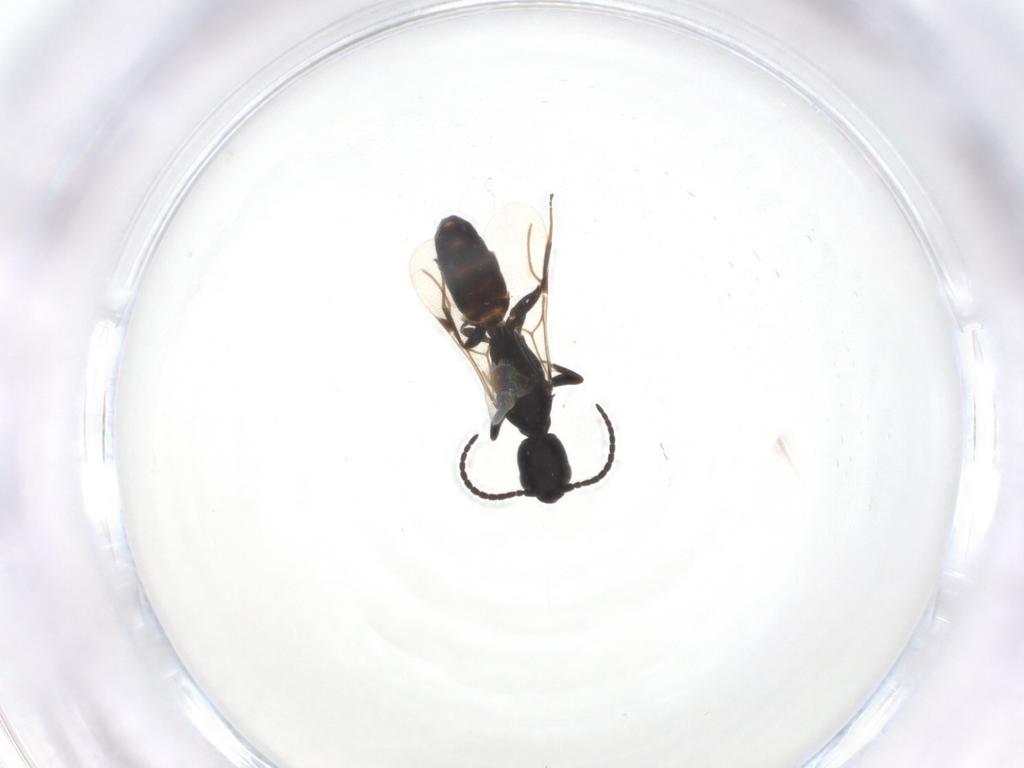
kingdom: Animalia
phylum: Arthropoda
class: Insecta
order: Hymenoptera
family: Bethylidae
